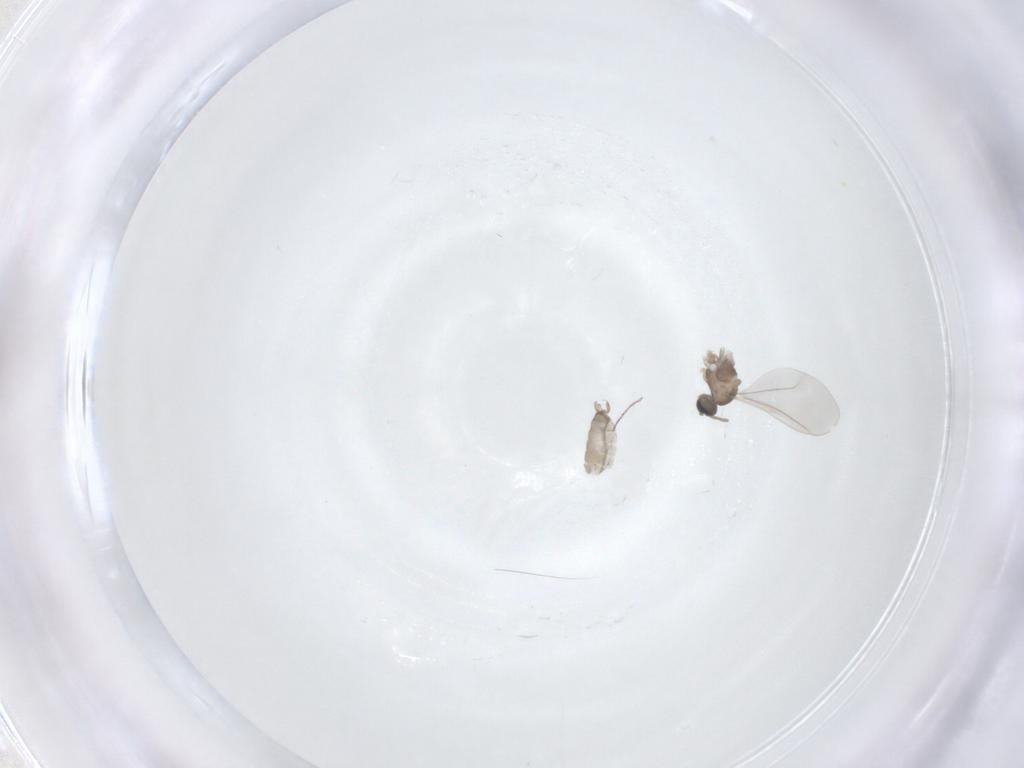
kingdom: Animalia
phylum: Arthropoda
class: Insecta
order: Diptera
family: Cecidomyiidae
